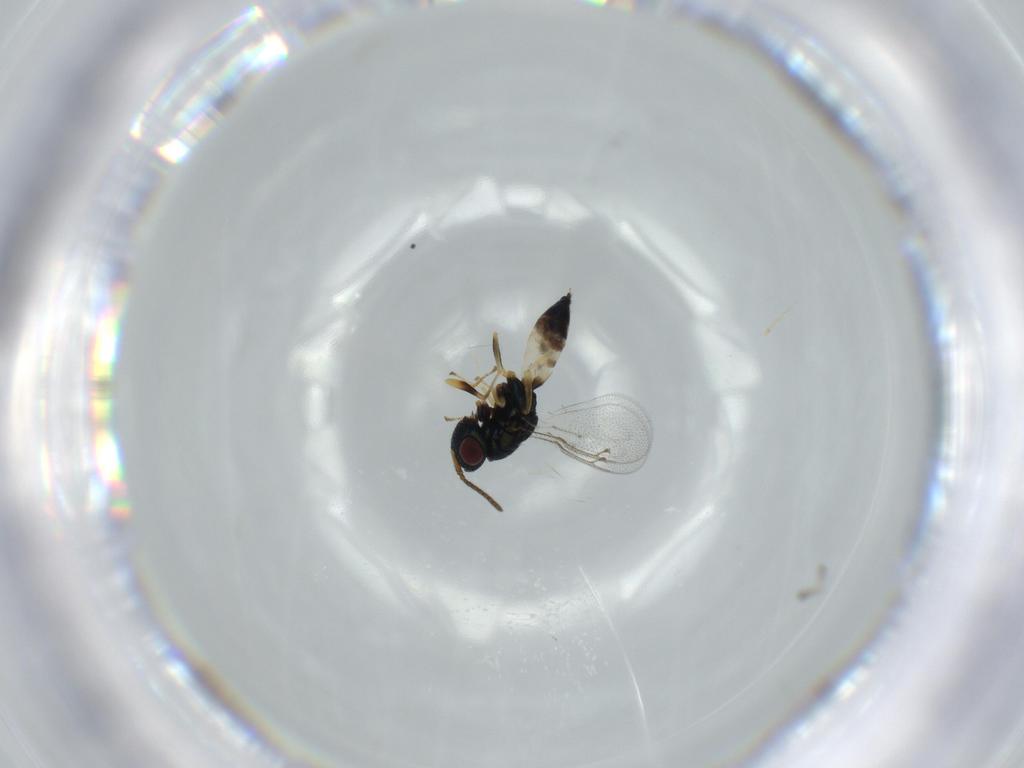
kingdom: Animalia
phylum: Arthropoda
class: Insecta
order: Hymenoptera
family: Pteromalidae
